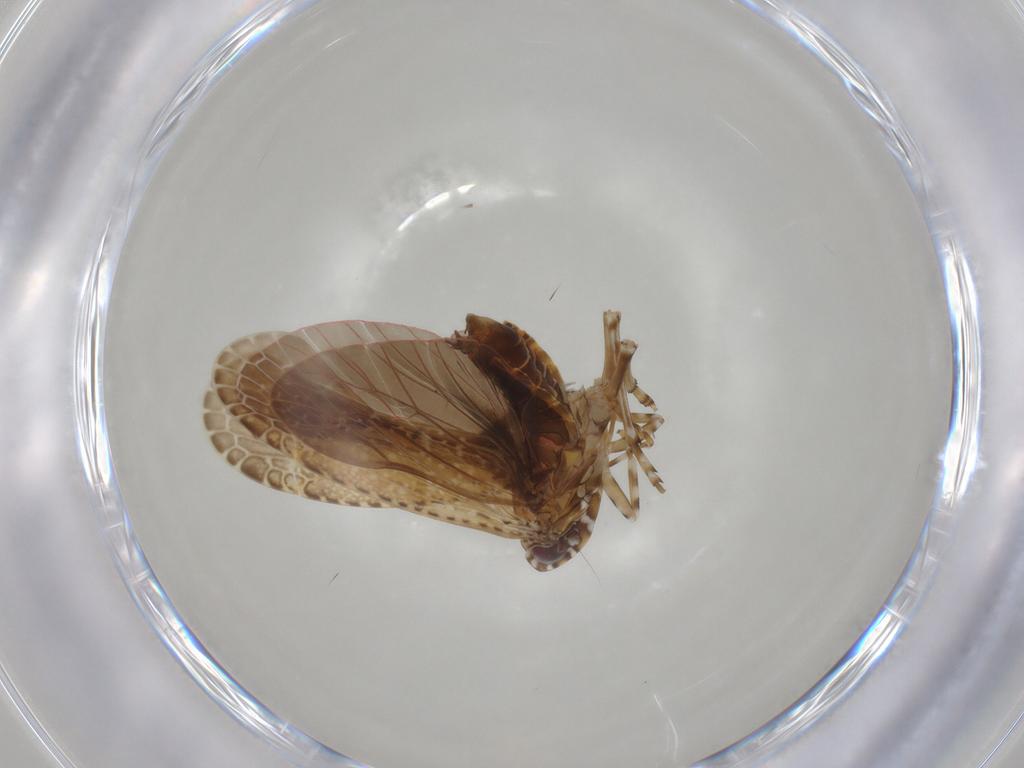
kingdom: Animalia
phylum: Arthropoda
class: Insecta
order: Hemiptera
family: Achilidae
